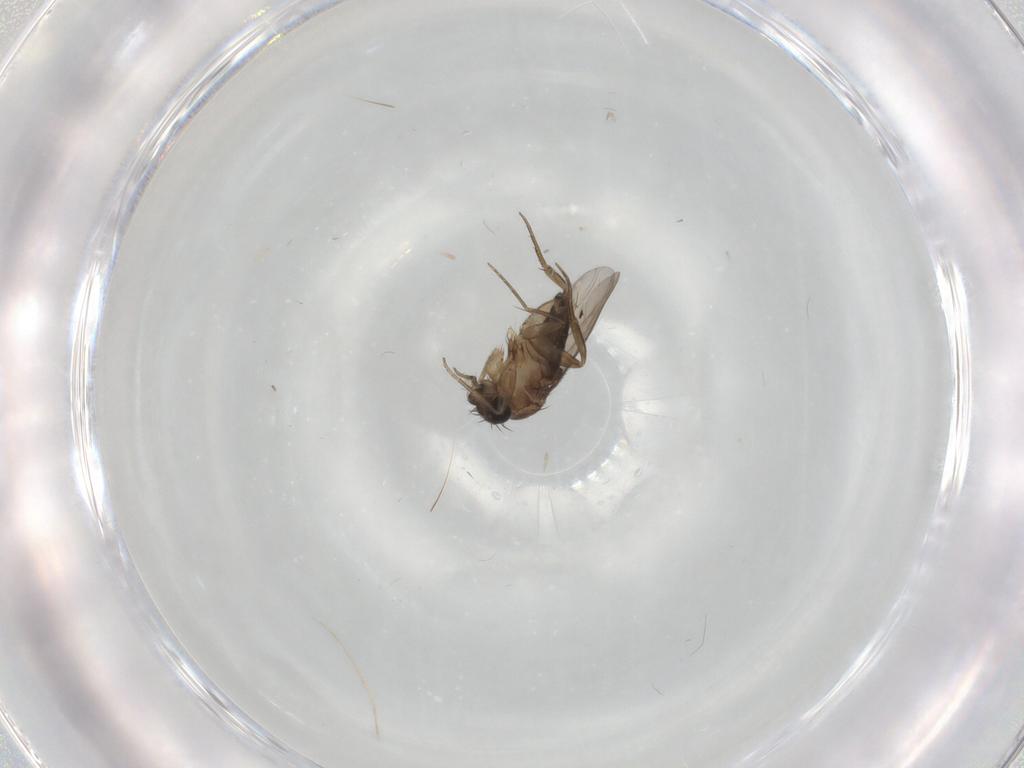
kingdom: Animalia
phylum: Arthropoda
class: Insecta
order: Diptera
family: Phoridae
